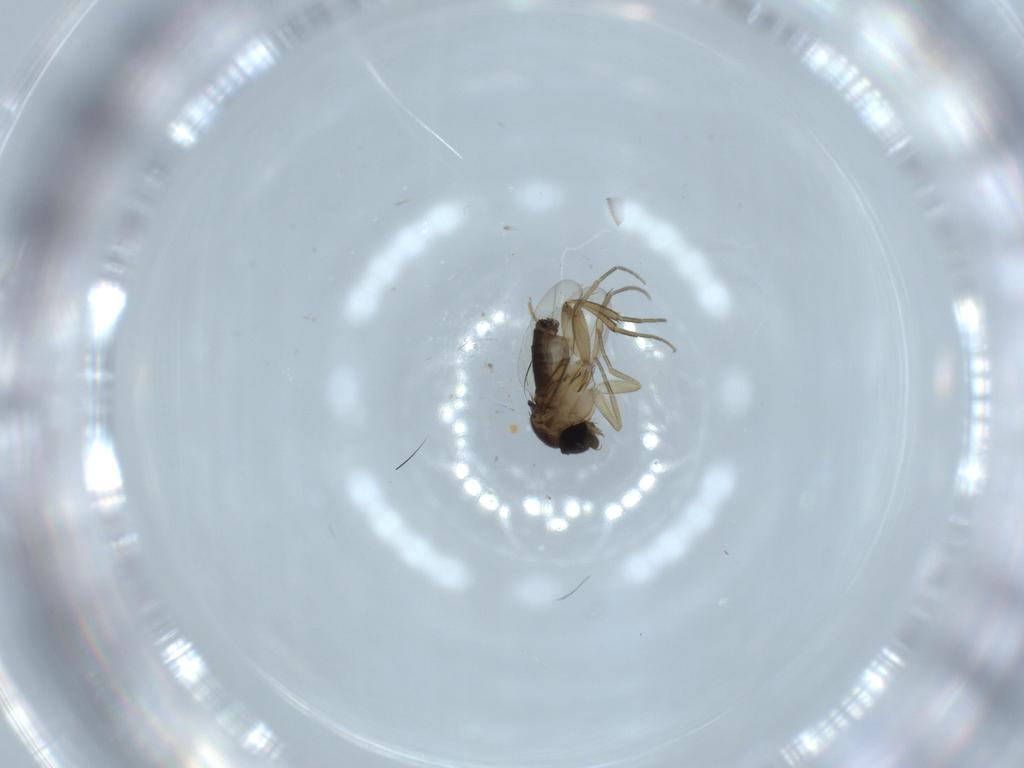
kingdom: Animalia
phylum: Arthropoda
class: Insecta
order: Diptera
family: Phoridae
